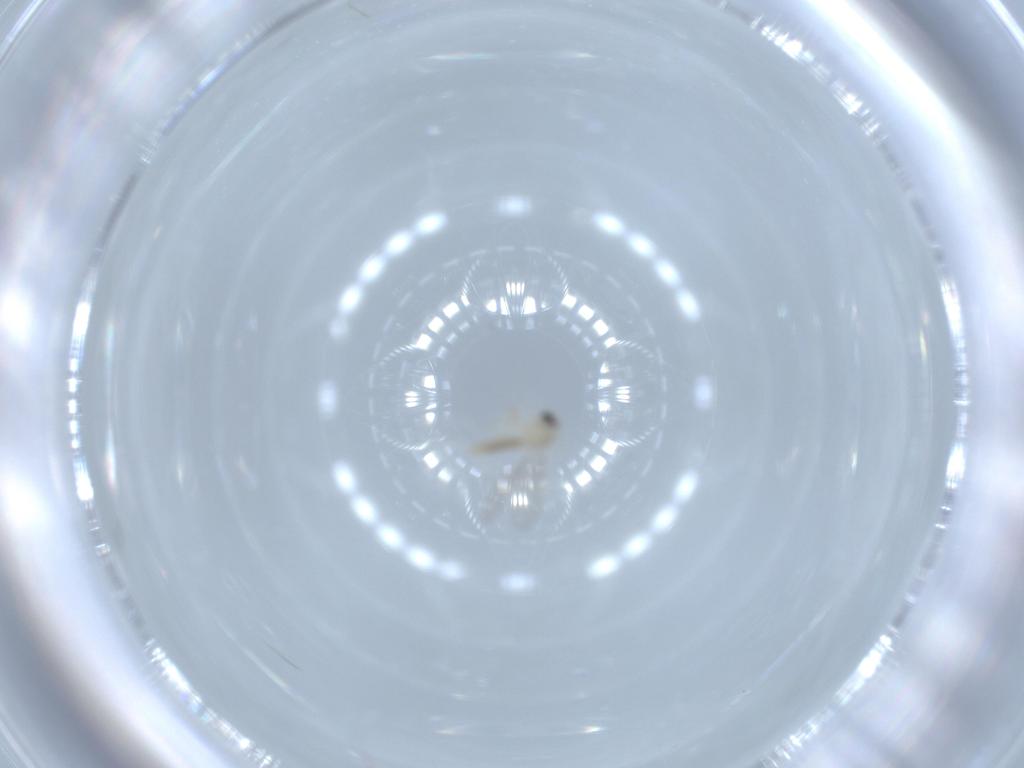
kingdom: Animalia
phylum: Arthropoda
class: Insecta
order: Diptera
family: Cecidomyiidae
